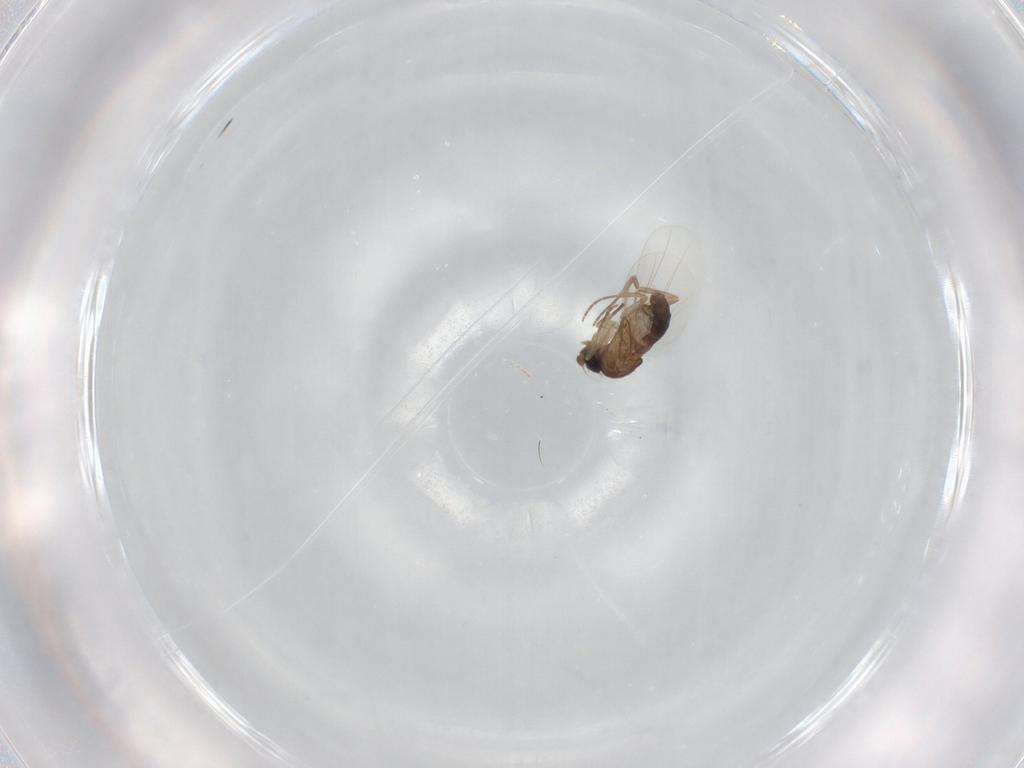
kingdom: Animalia
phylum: Arthropoda
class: Insecta
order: Diptera
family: Phoridae
